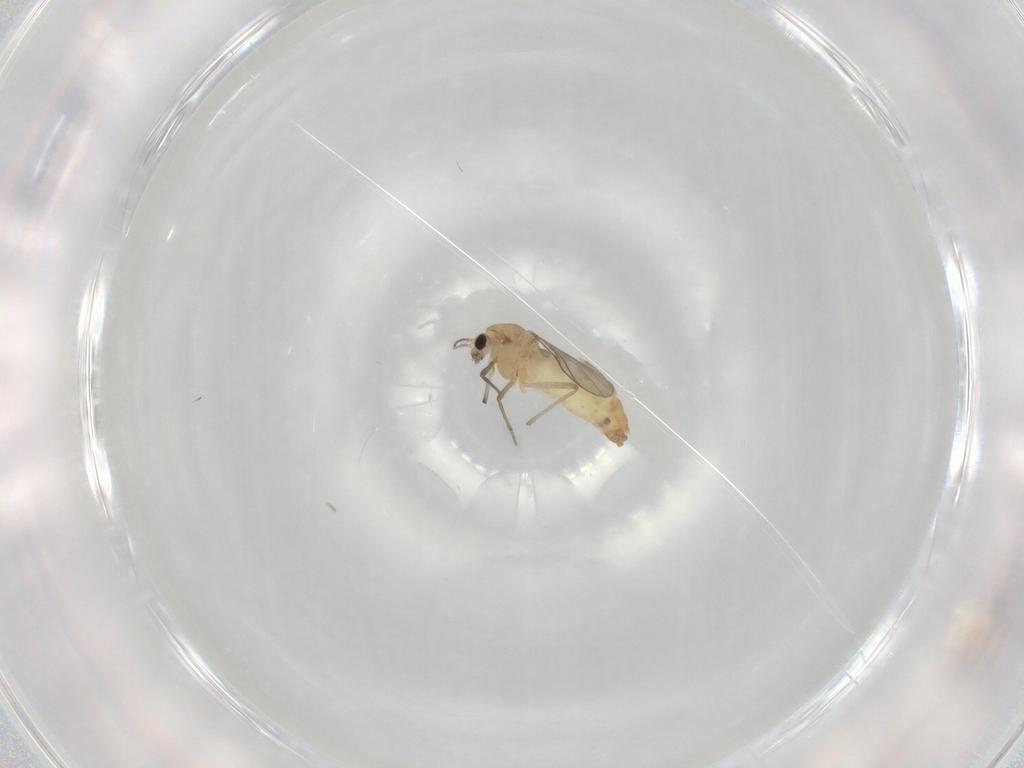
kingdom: Animalia
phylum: Arthropoda
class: Insecta
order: Diptera
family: Chironomidae
